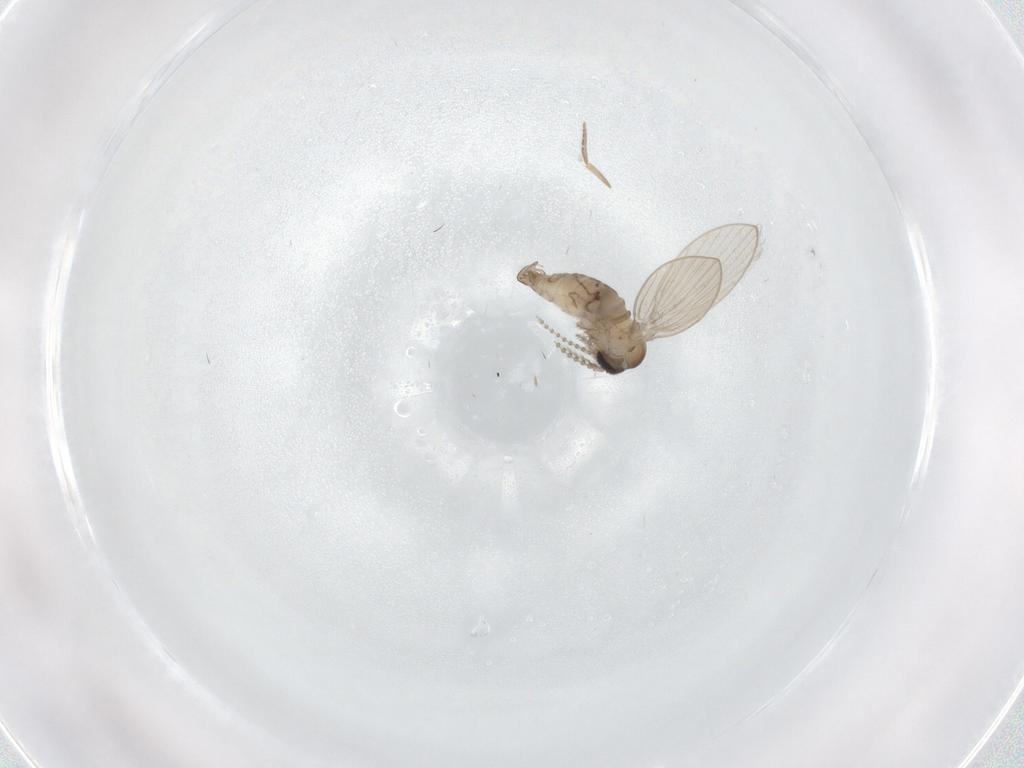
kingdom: Animalia
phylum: Arthropoda
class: Insecta
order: Diptera
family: Psychodidae
